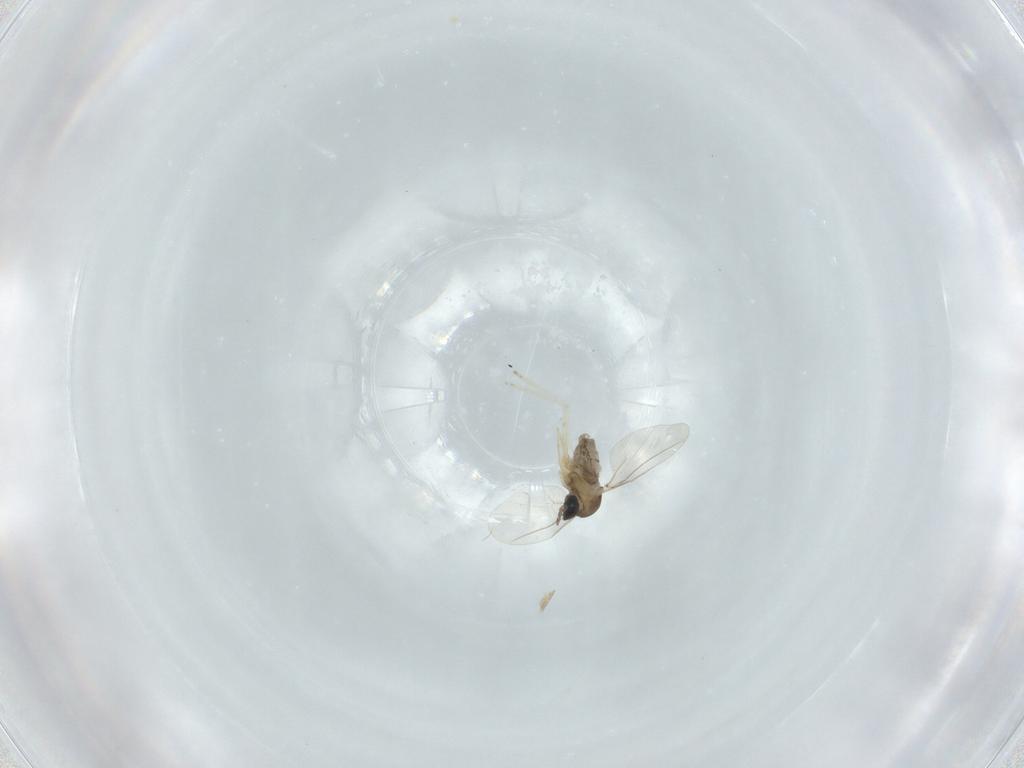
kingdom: Animalia
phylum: Arthropoda
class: Insecta
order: Diptera
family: Cecidomyiidae
